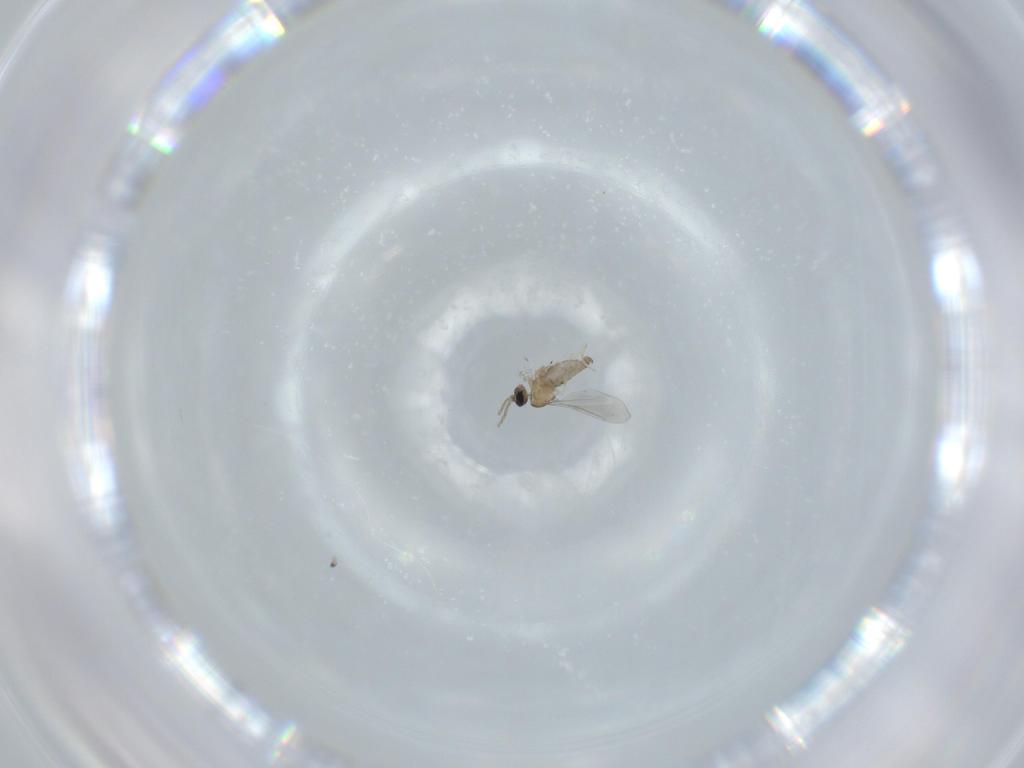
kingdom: Animalia
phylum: Arthropoda
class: Insecta
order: Diptera
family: Cecidomyiidae
